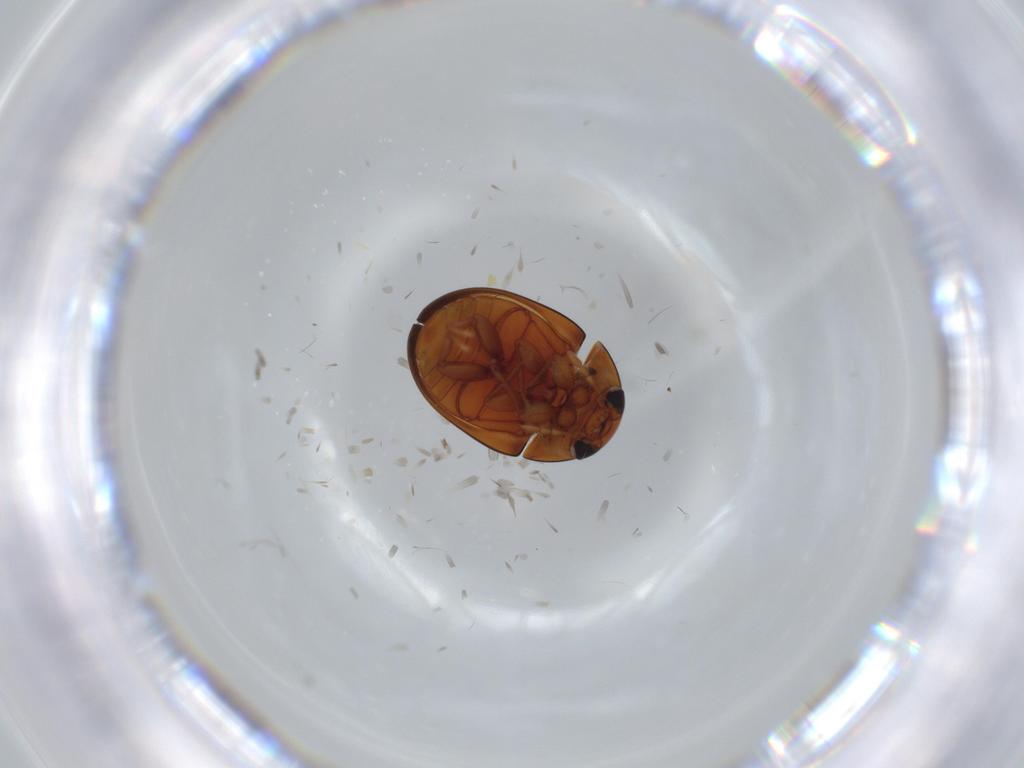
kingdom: Animalia
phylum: Arthropoda
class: Insecta
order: Coleoptera
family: Phalacridae
